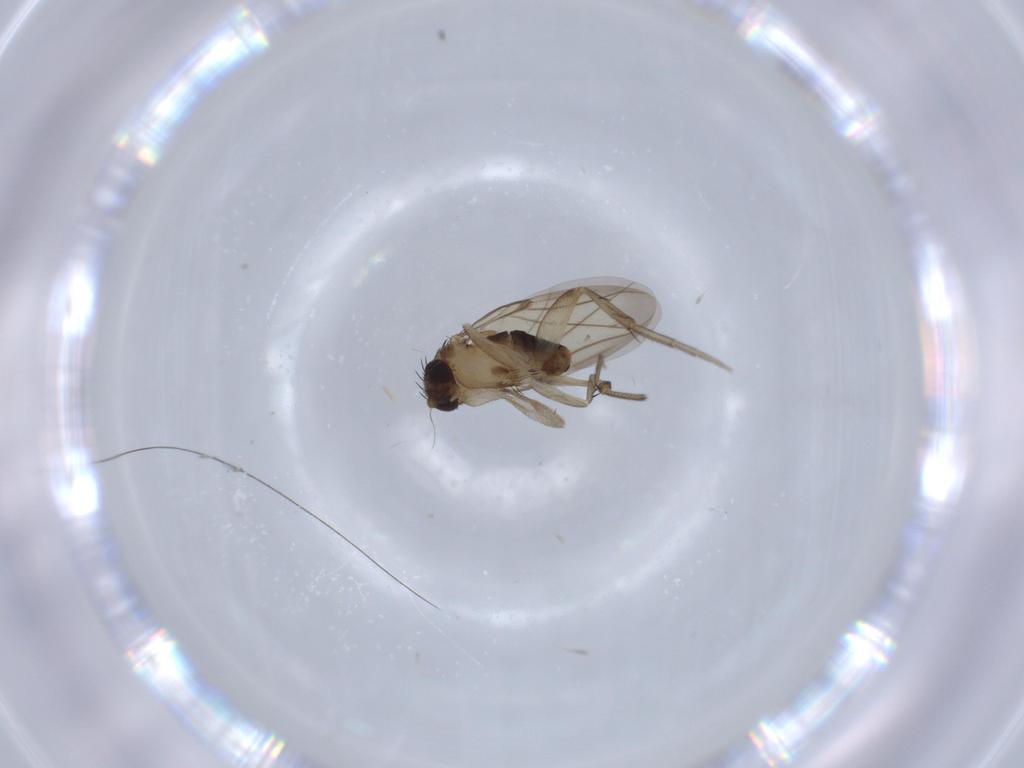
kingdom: Animalia
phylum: Arthropoda
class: Insecta
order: Diptera
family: Phoridae
